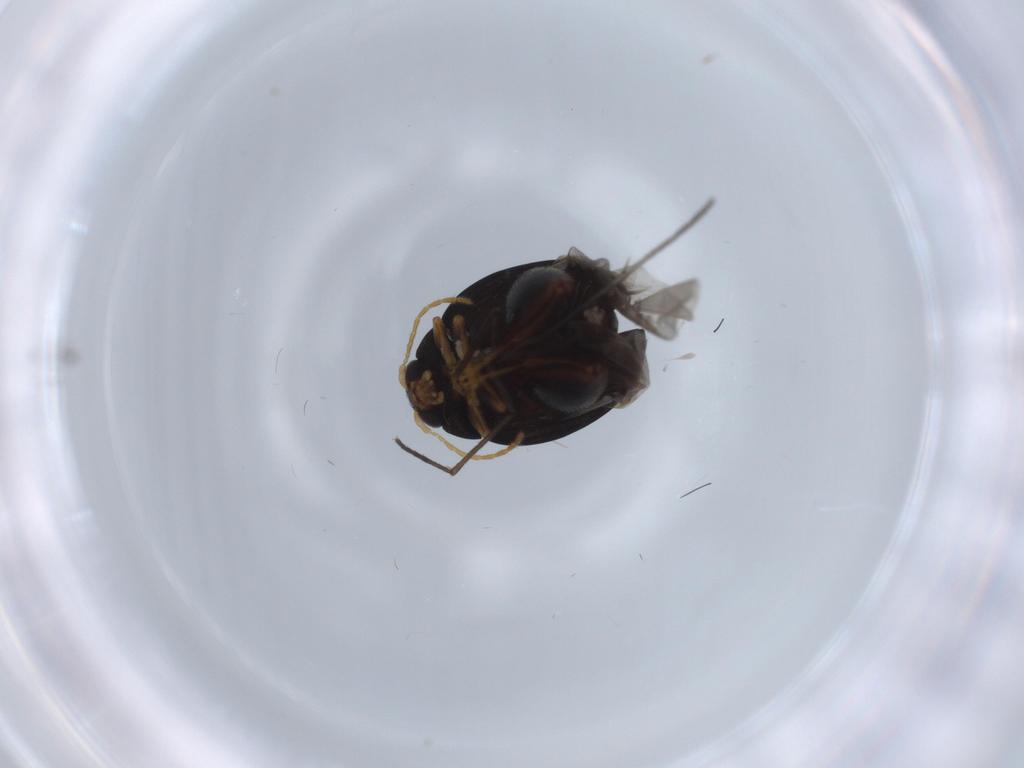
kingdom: Animalia
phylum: Arthropoda
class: Insecta
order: Coleoptera
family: Chrysomelidae
